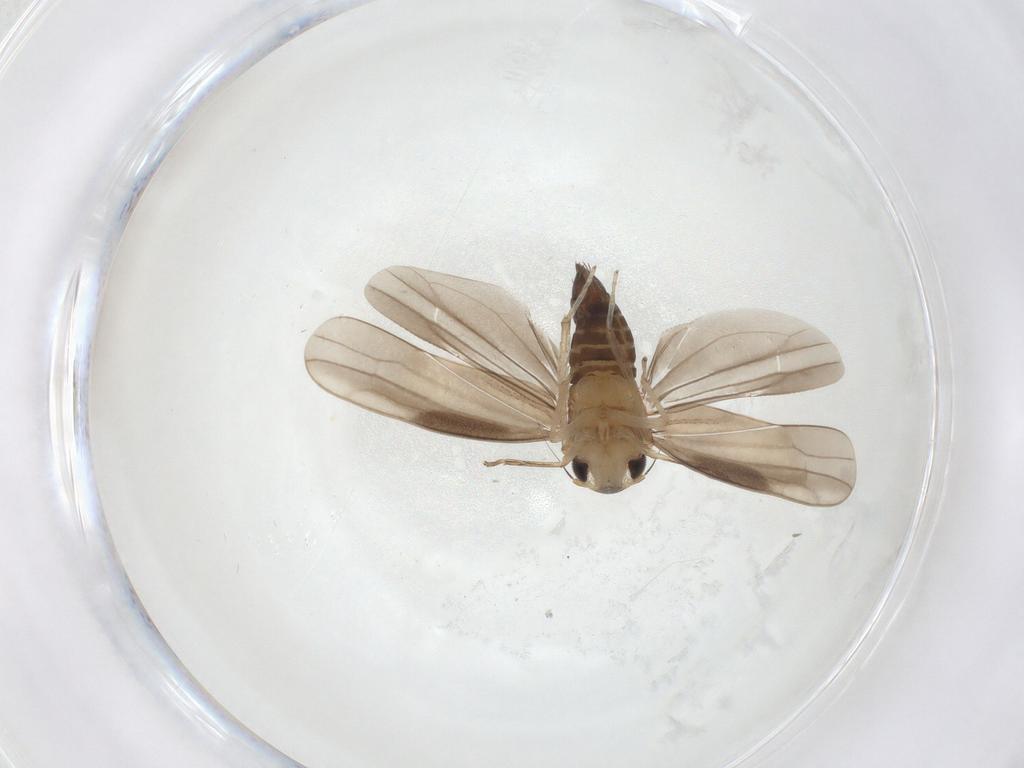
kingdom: Animalia
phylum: Arthropoda
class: Insecta
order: Hemiptera
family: Cicadellidae
